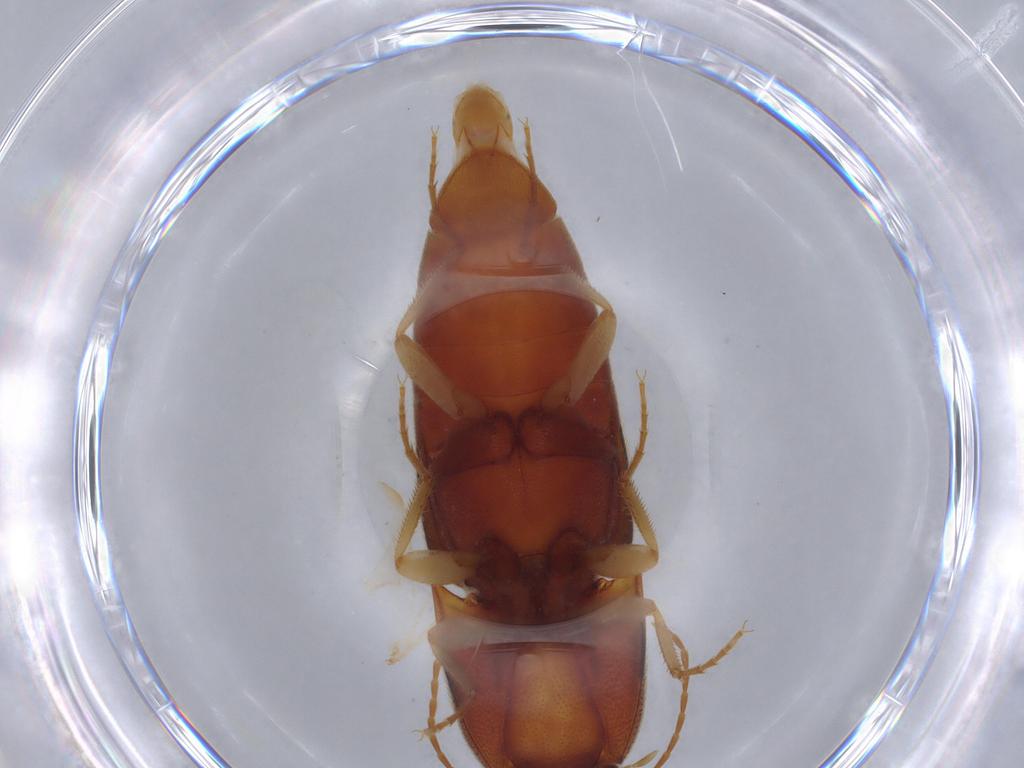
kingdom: Animalia
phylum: Arthropoda
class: Insecta
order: Coleoptera
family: Elateridae
